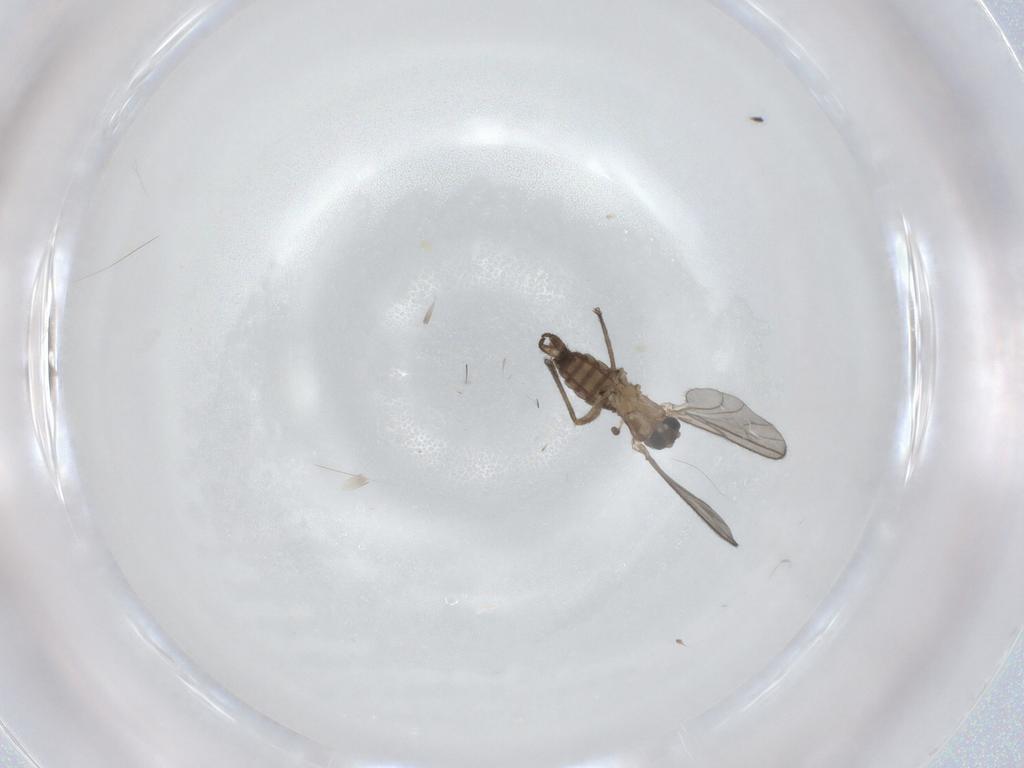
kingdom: Animalia
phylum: Arthropoda
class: Insecta
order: Diptera
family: Sciaridae
